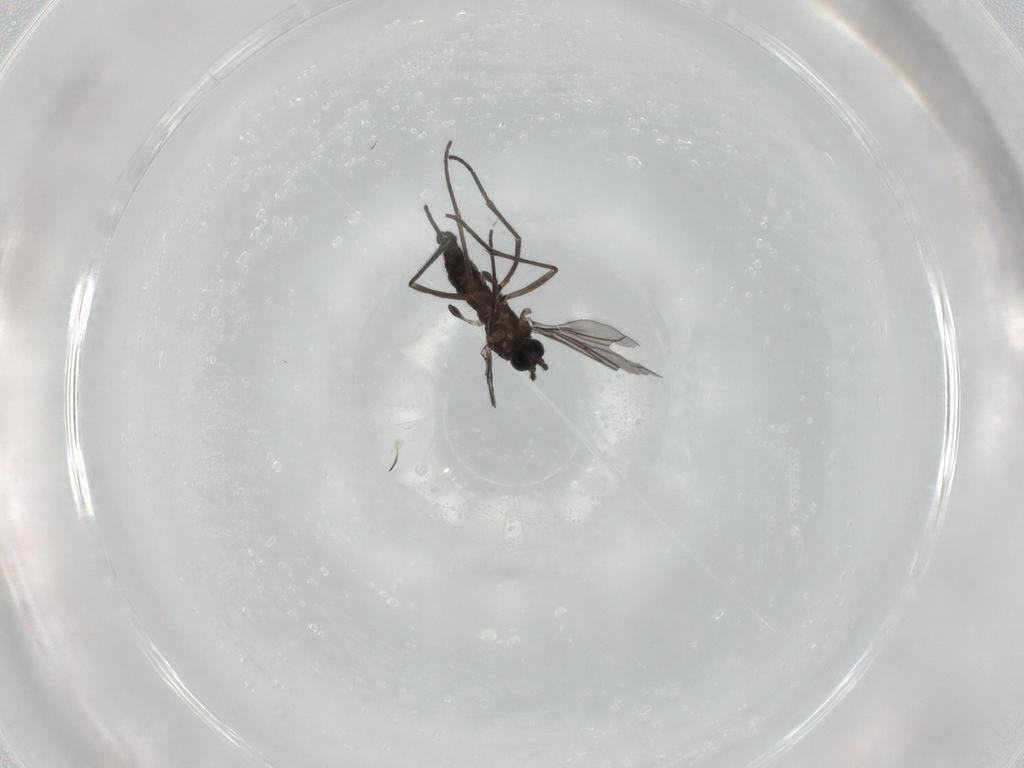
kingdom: Animalia
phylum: Arthropoda
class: Insecta
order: Diptera
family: Sciaridae
